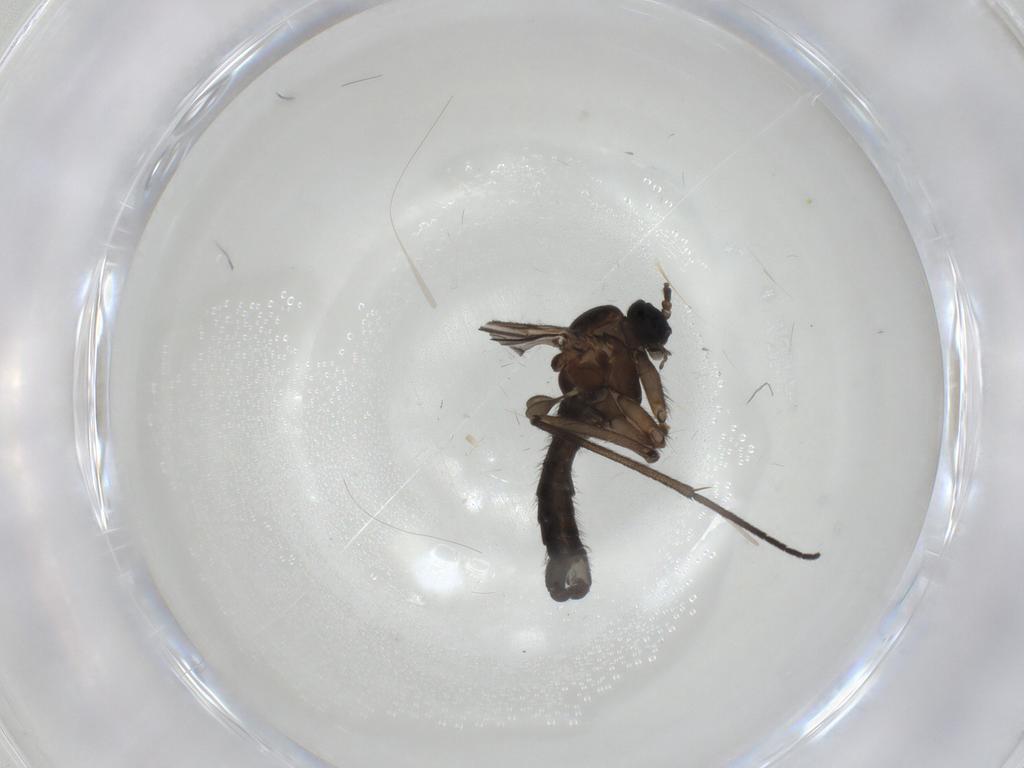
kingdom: Animalia
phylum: Arthropoda
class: Insecta
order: Diptera
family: Sciaridae
